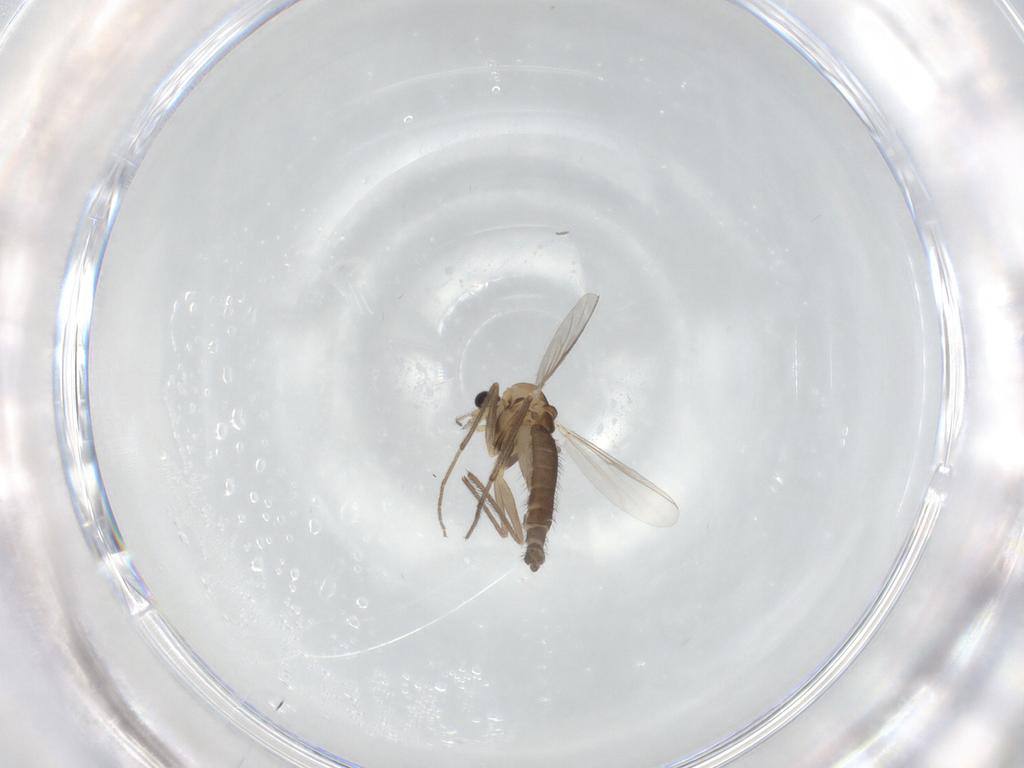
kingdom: Animalia
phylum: Arthropoda
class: Insecta
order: Diptera
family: Chironomidae
